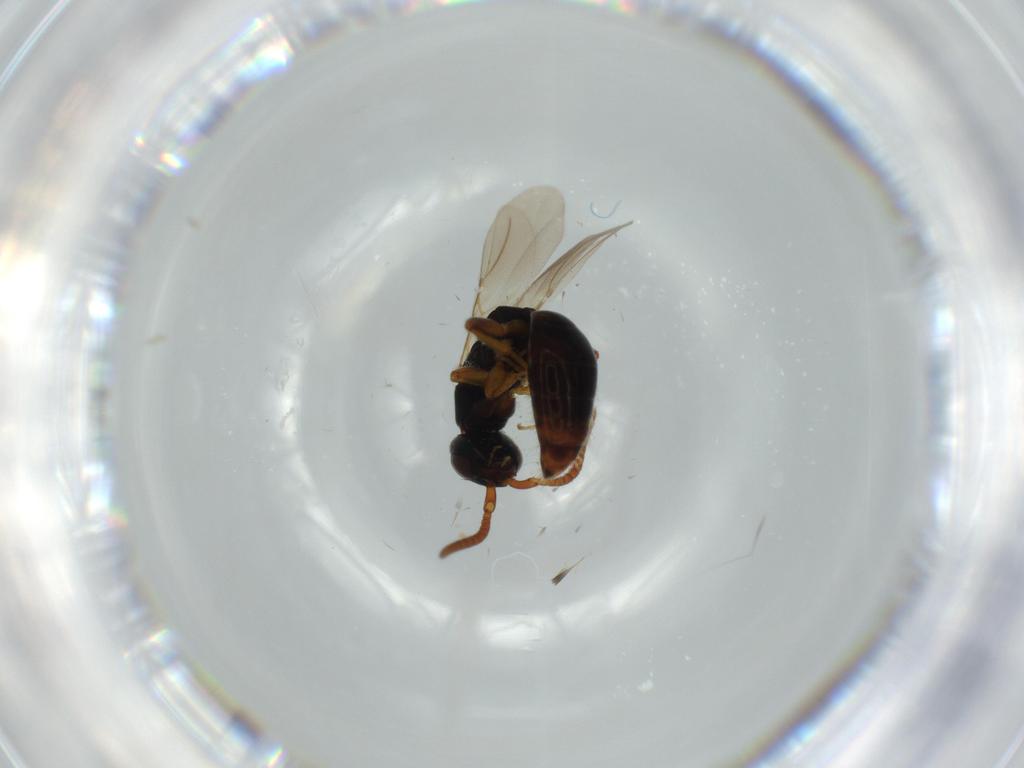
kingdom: Animalia
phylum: Arthropoda
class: Insecta
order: Hymenoptera
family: Bethylidae
